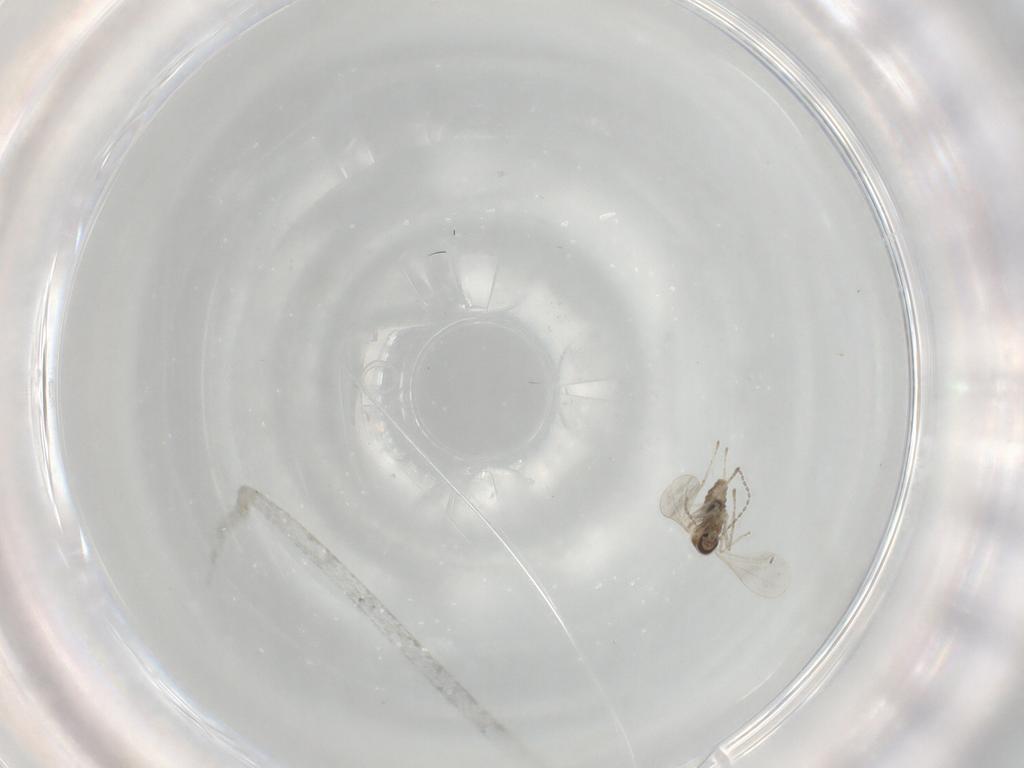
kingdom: Animalia
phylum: Arthropoda
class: Insecta
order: Diptera
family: Cecidomyiidae
